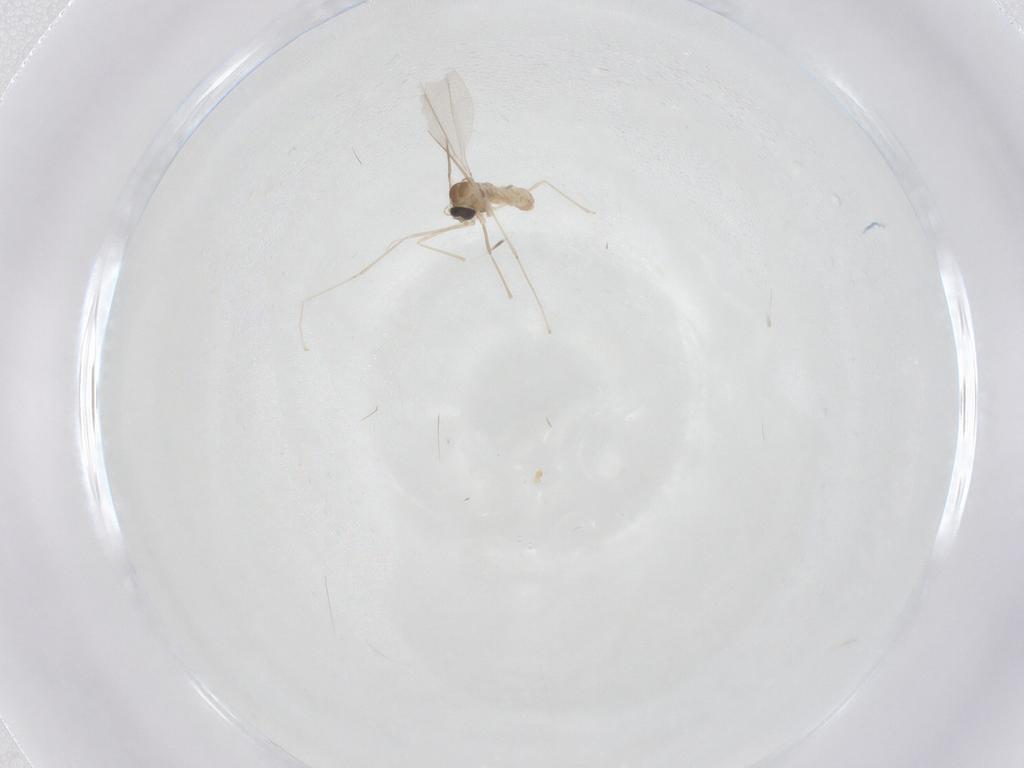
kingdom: Animalia
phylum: Arthropoda
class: Insecta
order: Diptera
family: Cecidomyiidae
